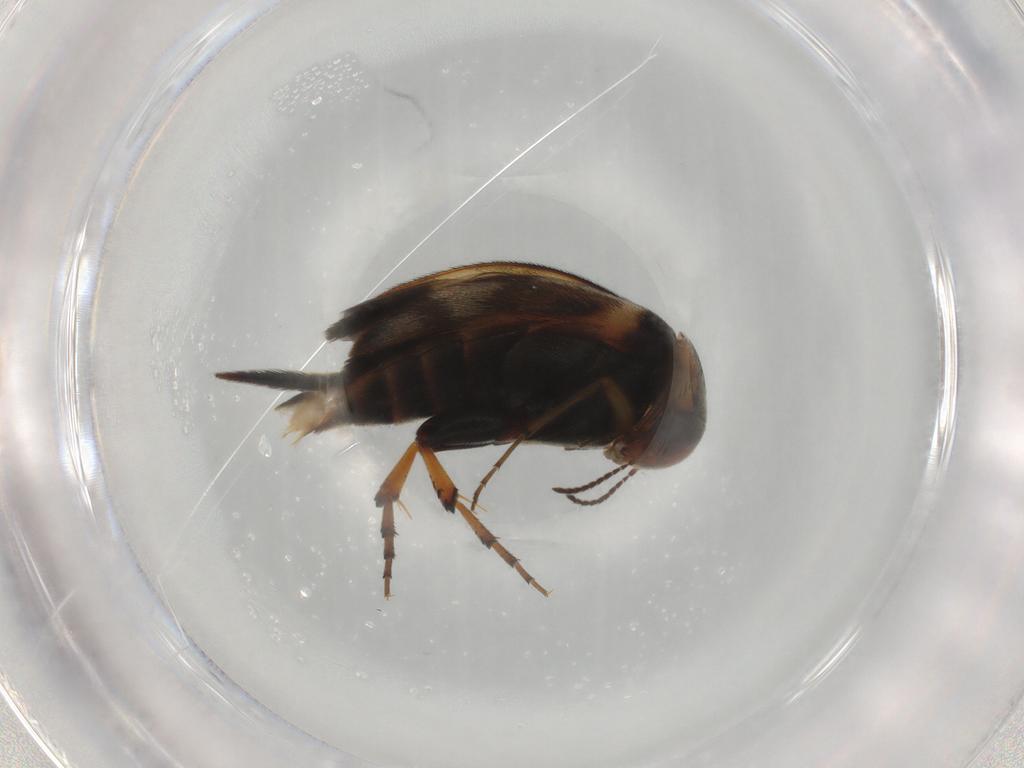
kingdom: Animalia
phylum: Arthropoda
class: Insecta
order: Coleoptera
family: Mordellidae
